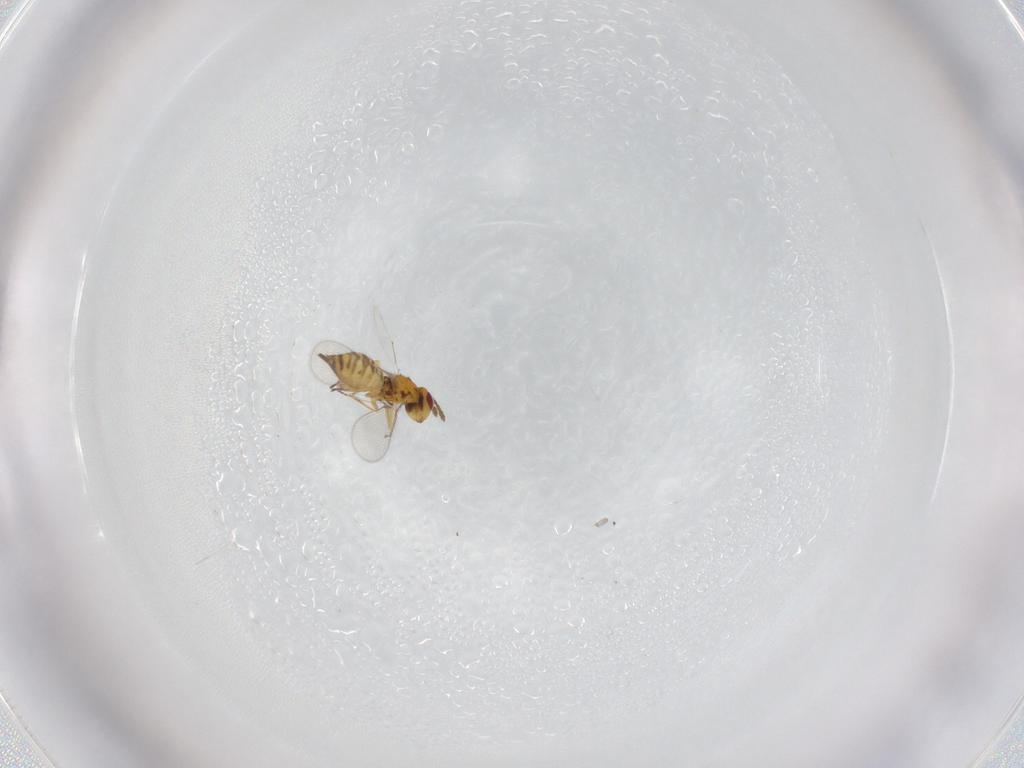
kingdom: Animalia
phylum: Arthropoda
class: Insecta
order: Hymenoptera
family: Eulophidae
